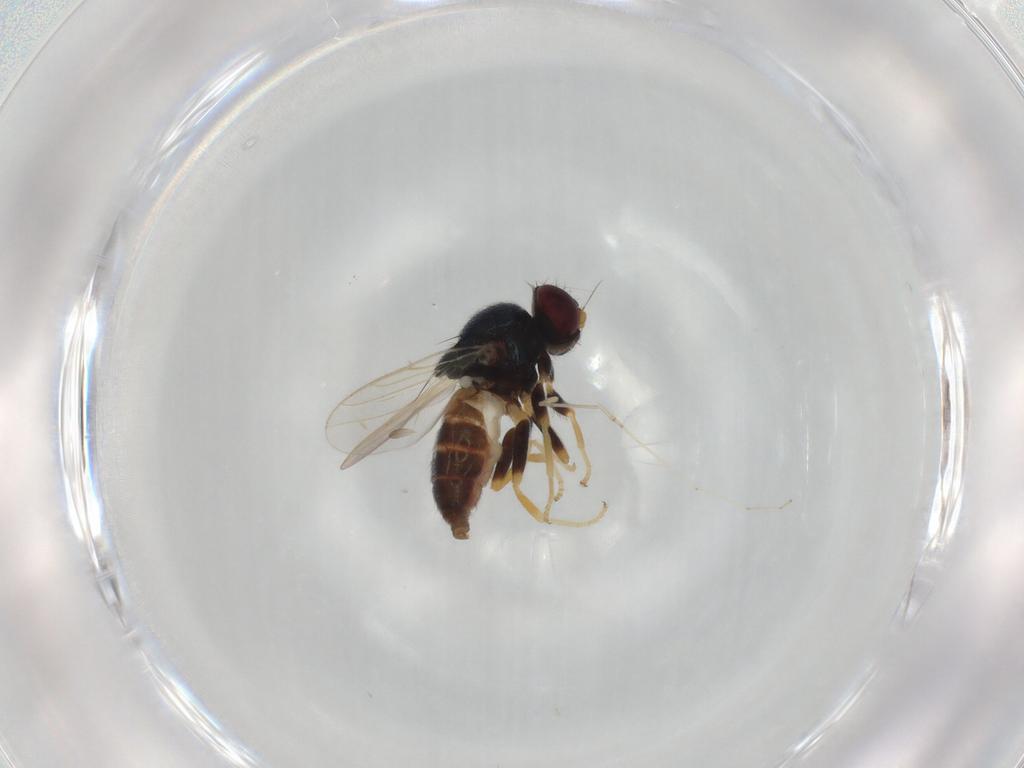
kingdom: Animalia
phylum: Arthropoda
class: Insecta
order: Diptera
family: Chloropidae
